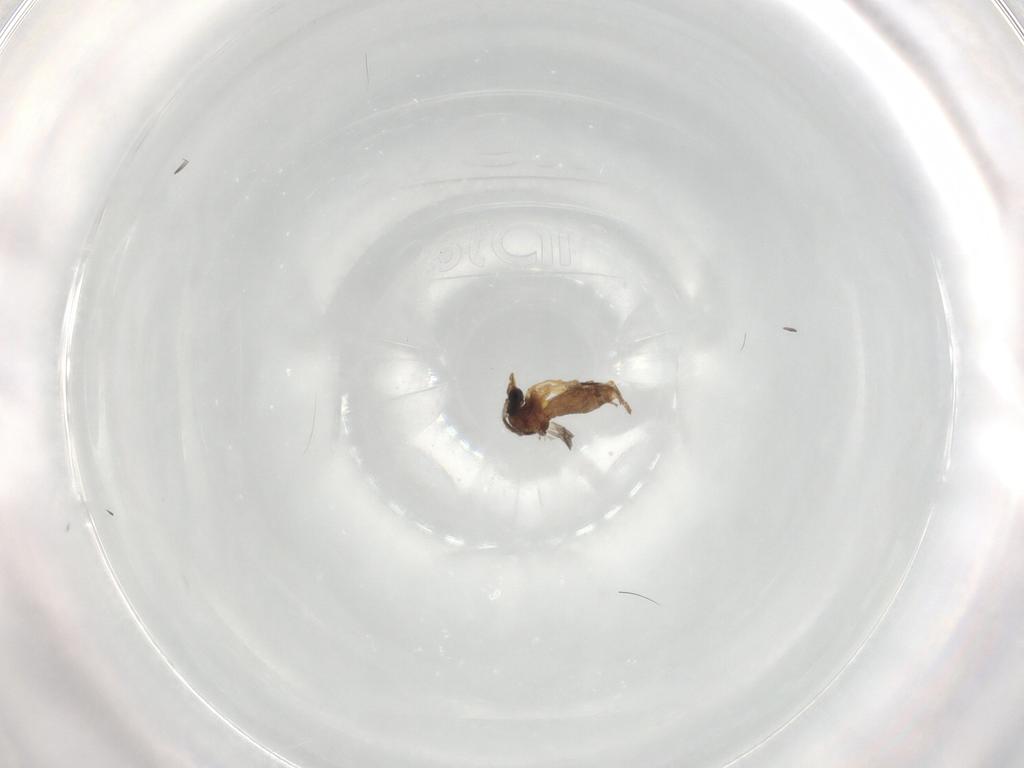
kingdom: Animalia
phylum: Arthropoda
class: Insecta
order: Diptera
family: Ceratopogonidae
